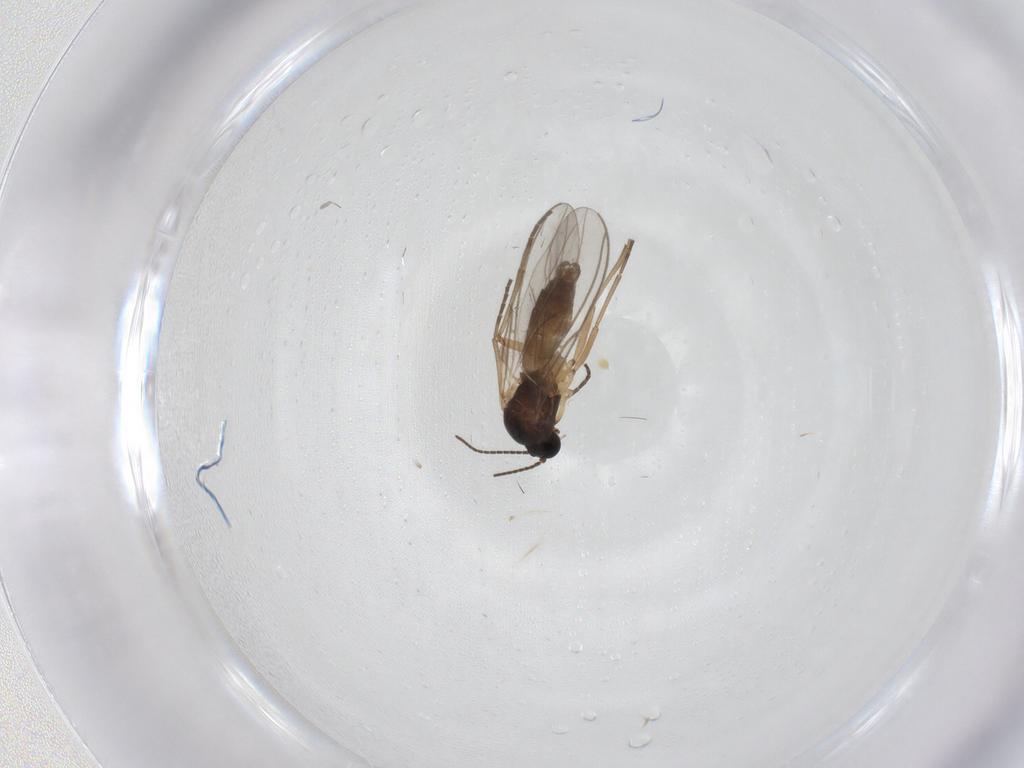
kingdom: Animalia
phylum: Arthropoda
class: Insecta
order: Diptera
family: Sciaridae
